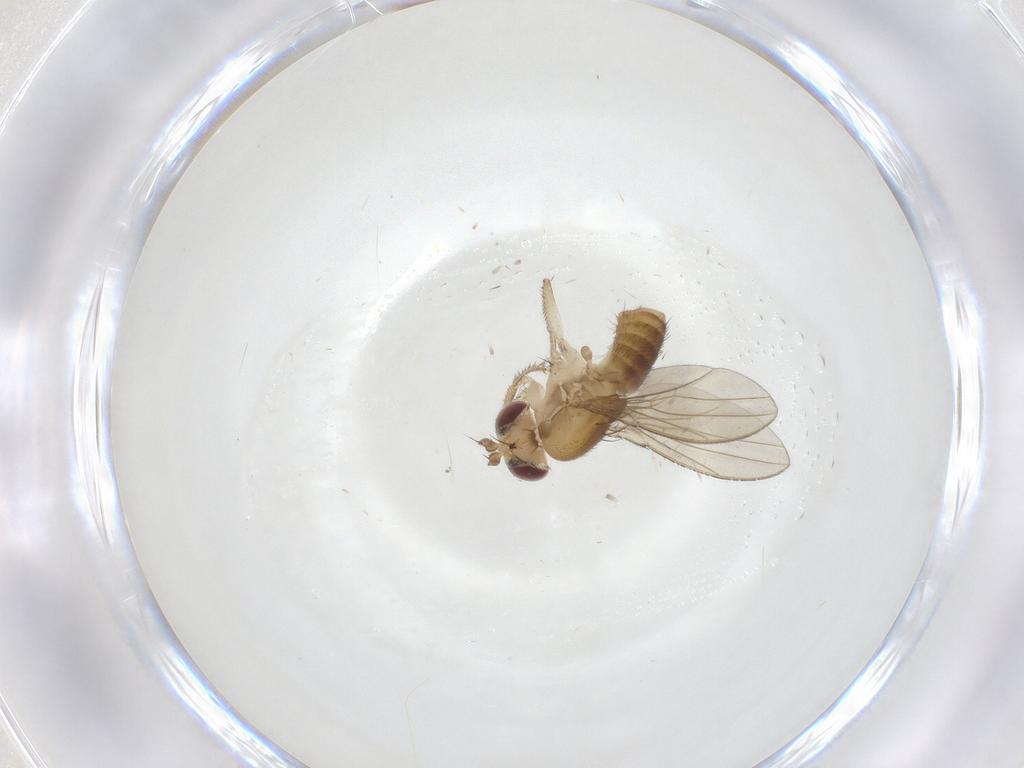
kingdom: Animalia
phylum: Arthropoda
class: Insecta
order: Diptera
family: Drosophilidae
